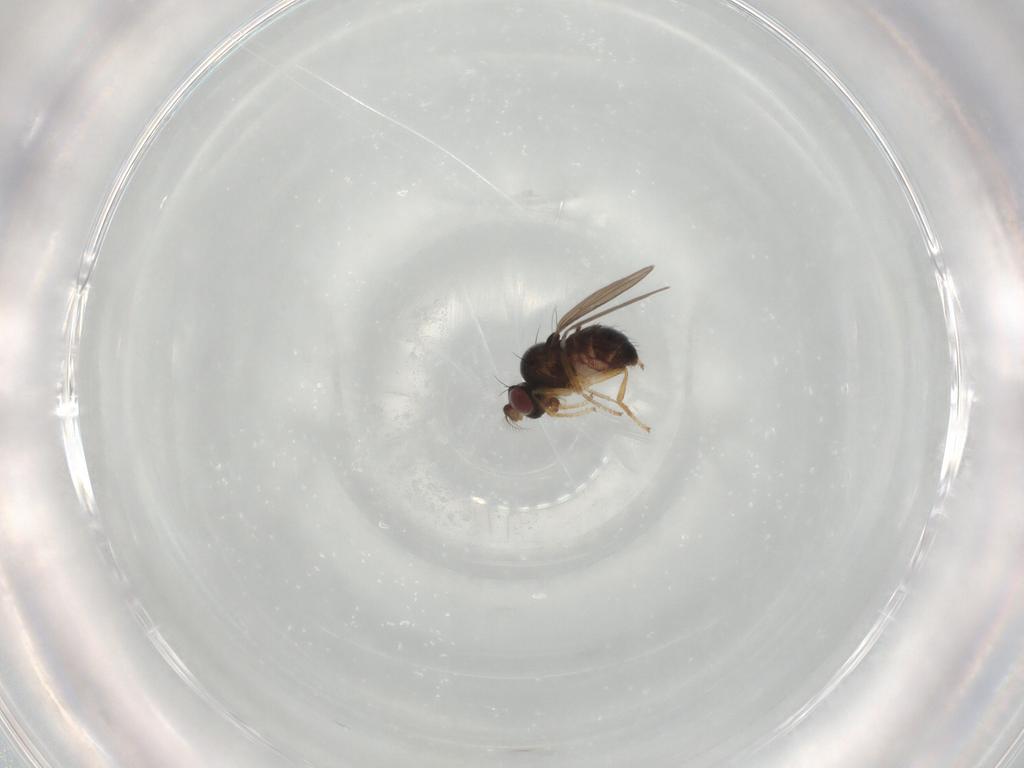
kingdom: Animalia
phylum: Arthropoda
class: Insecta
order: Diptera
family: Ephydridae
